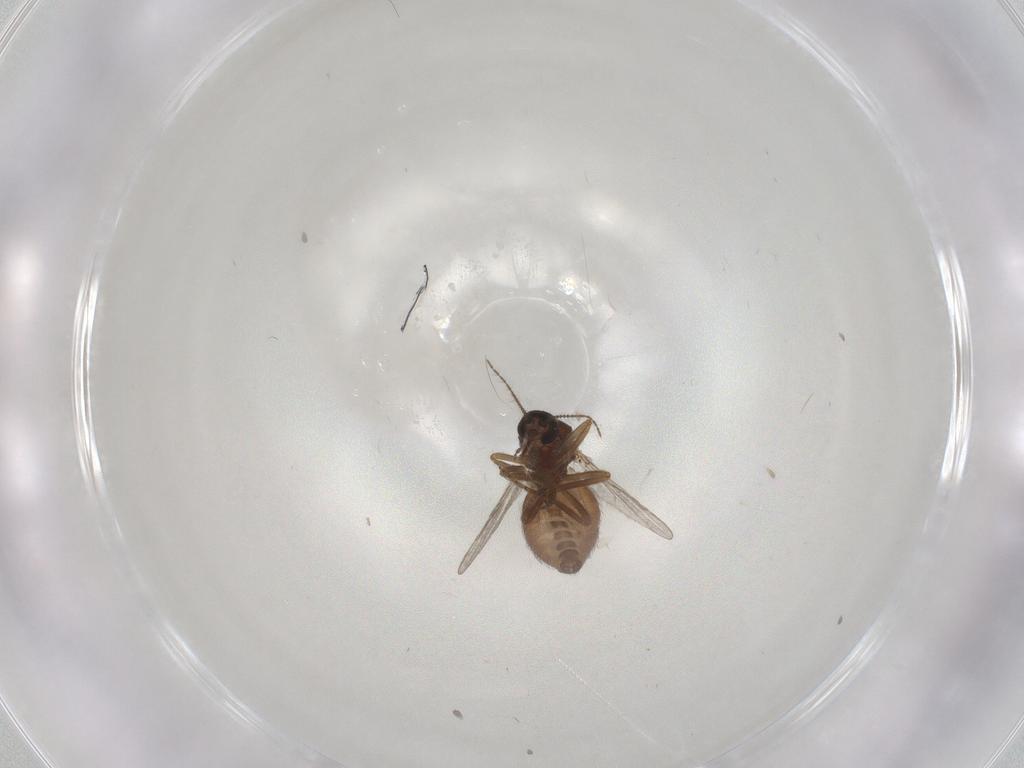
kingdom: Animalia
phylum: Arthropoda
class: Insecta
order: Diptera
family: Ceratopogonidae
